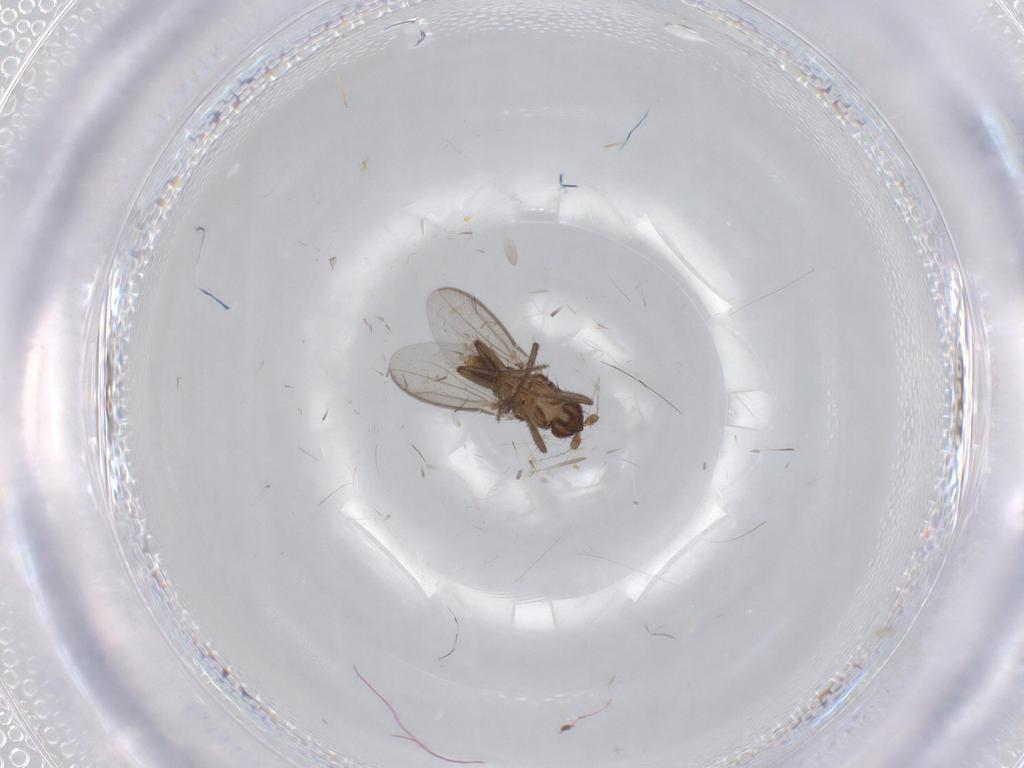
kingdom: Animalia
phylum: Arthropoda
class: Insecta
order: Diptera
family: Sphaeroceridae
